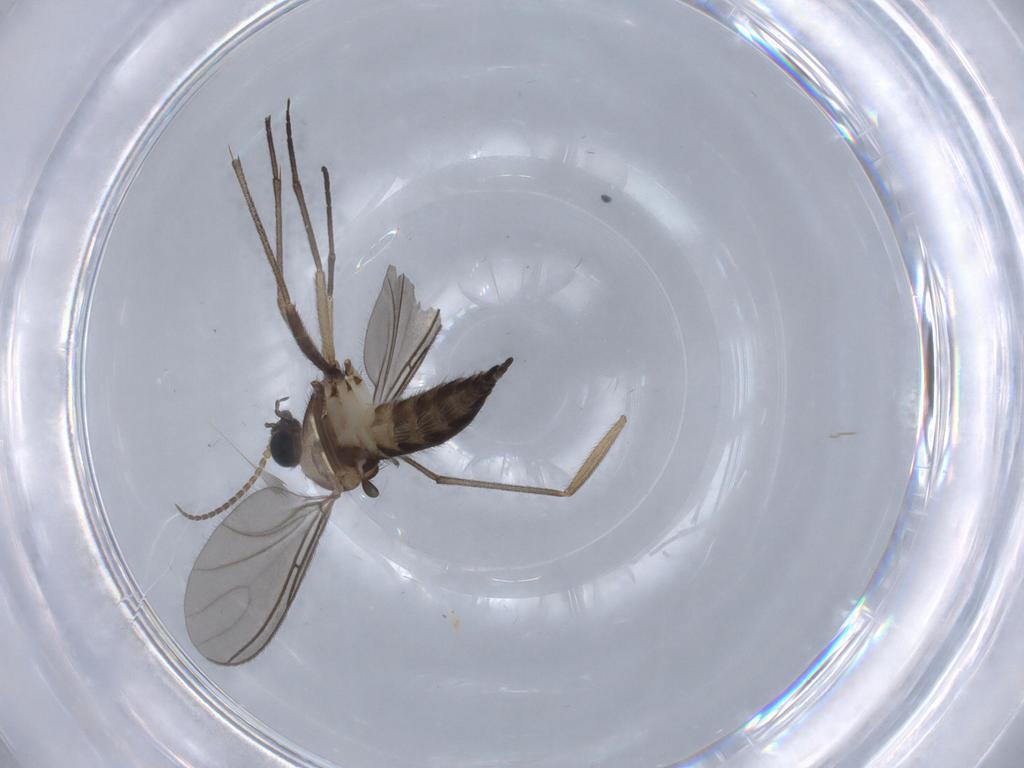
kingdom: Animalia
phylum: Arthropoda
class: Insecta
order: Diptera
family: Sciaridae
